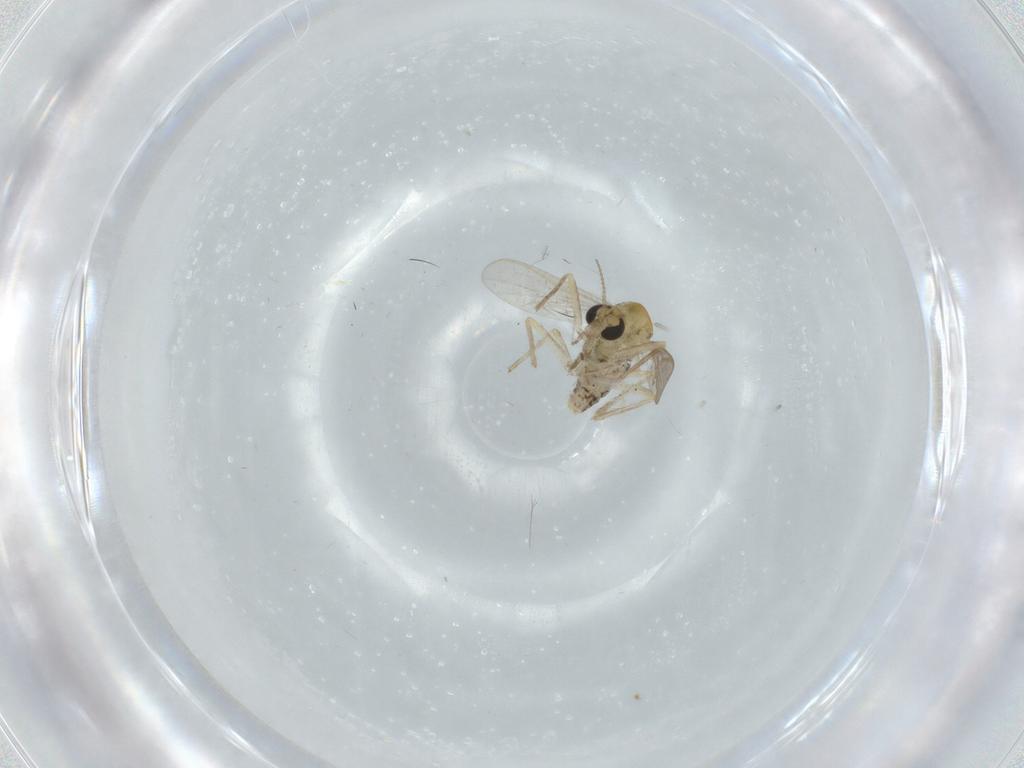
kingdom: Animalia
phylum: Arthropoda
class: Insecta
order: Diptera
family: Chironomidae
